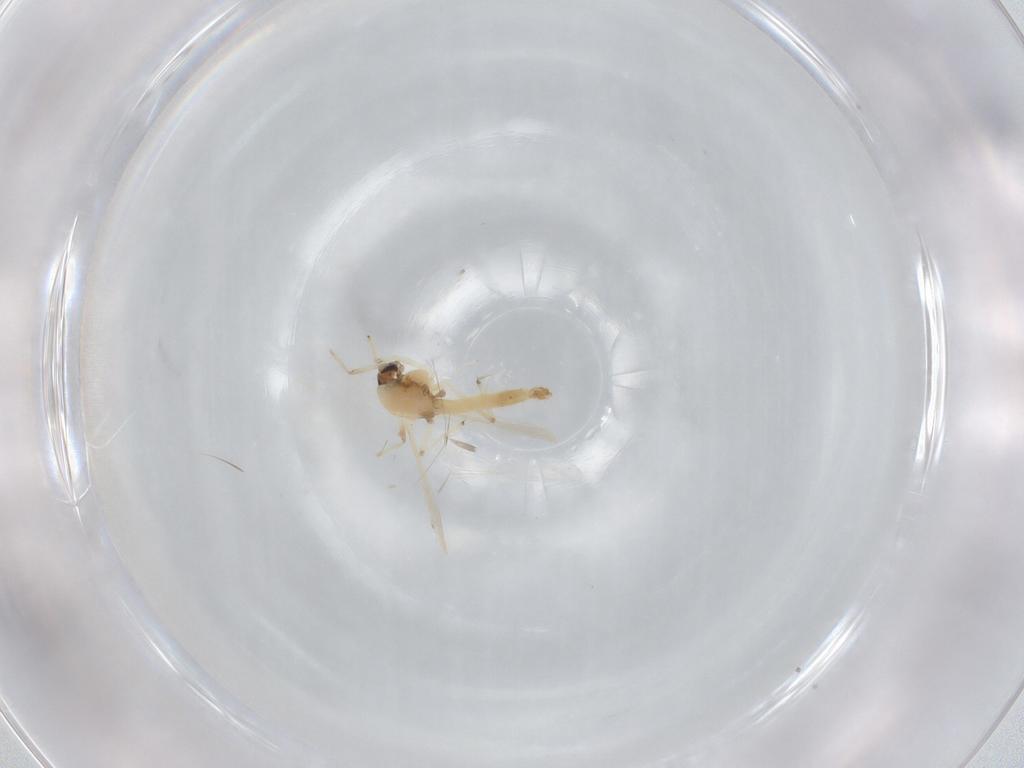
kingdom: Animalia
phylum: Arthropoda
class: Insecta
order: Diptera
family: Chironomidae
